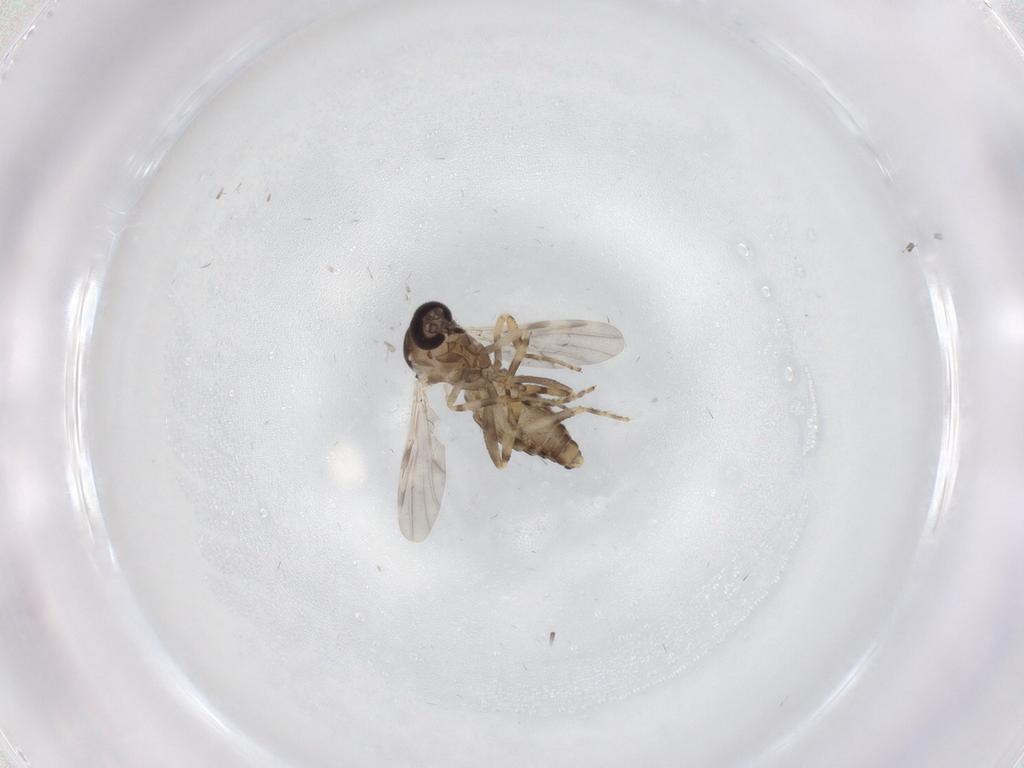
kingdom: Animalia
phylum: Arthropoda
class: Insecta
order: Diptera
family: Ceratopogonidae
